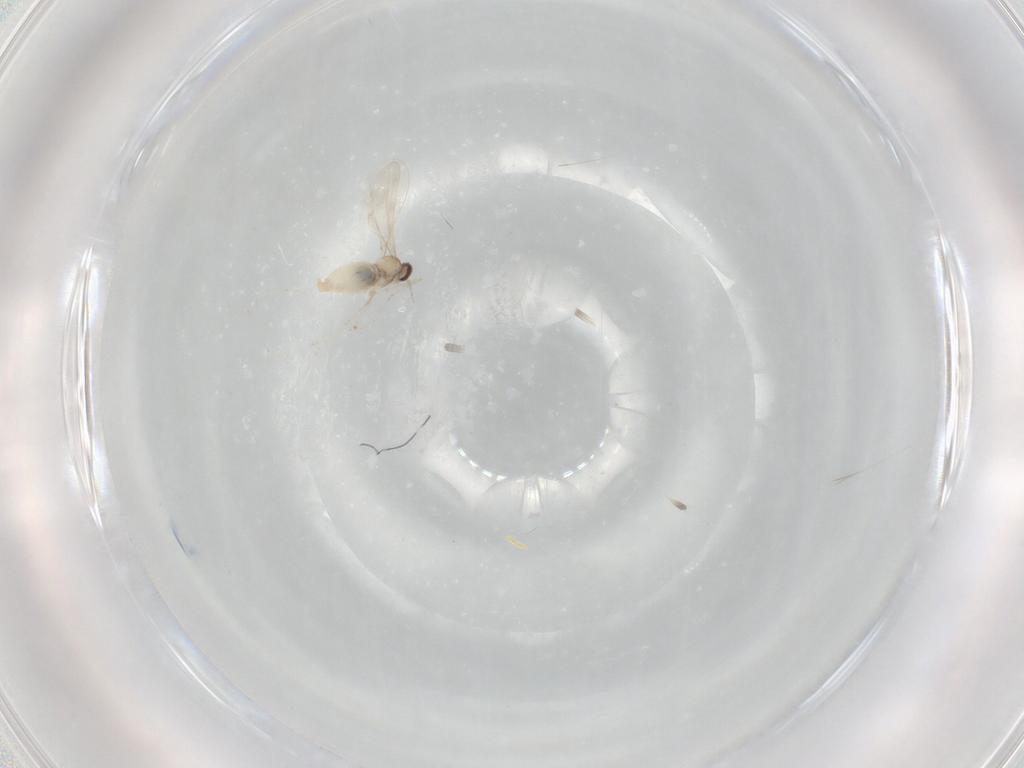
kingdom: Animalia
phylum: Arthropoda
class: Insecta
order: Diptera
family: Cecidomyiidae
